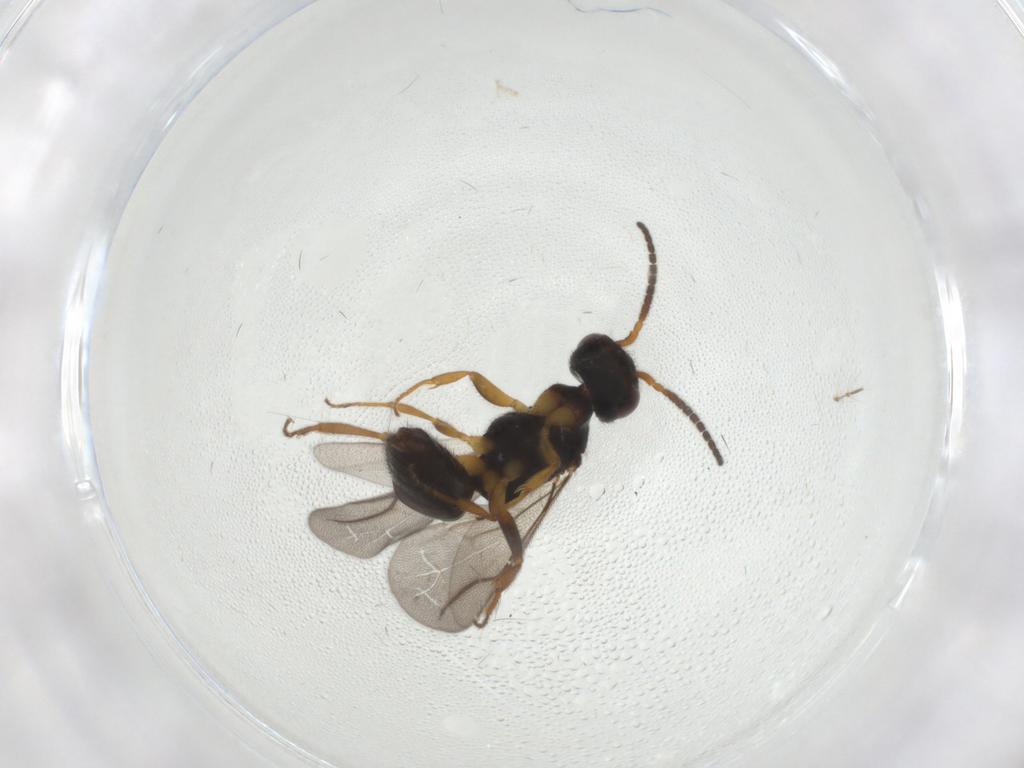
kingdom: Animalia
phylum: Arthropoda
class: Insecta
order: Hymenoptera
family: Bethylidae
